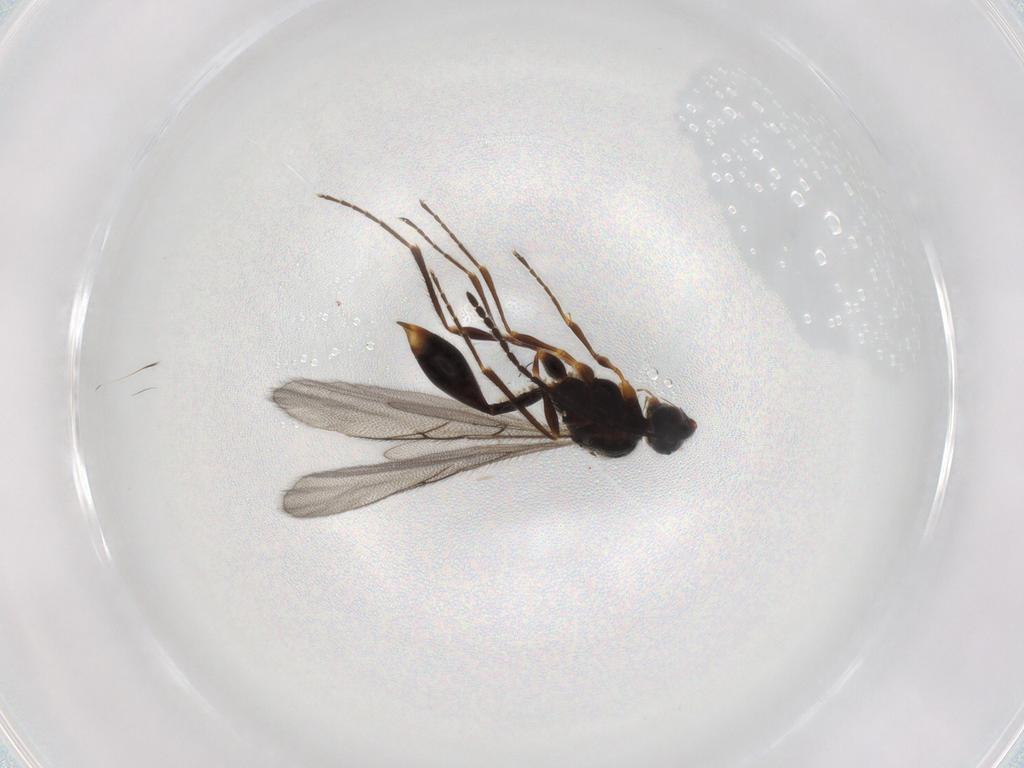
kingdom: Animalia
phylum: Arthropoda
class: Insecta
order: Hymenoptera
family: Diapriidae
